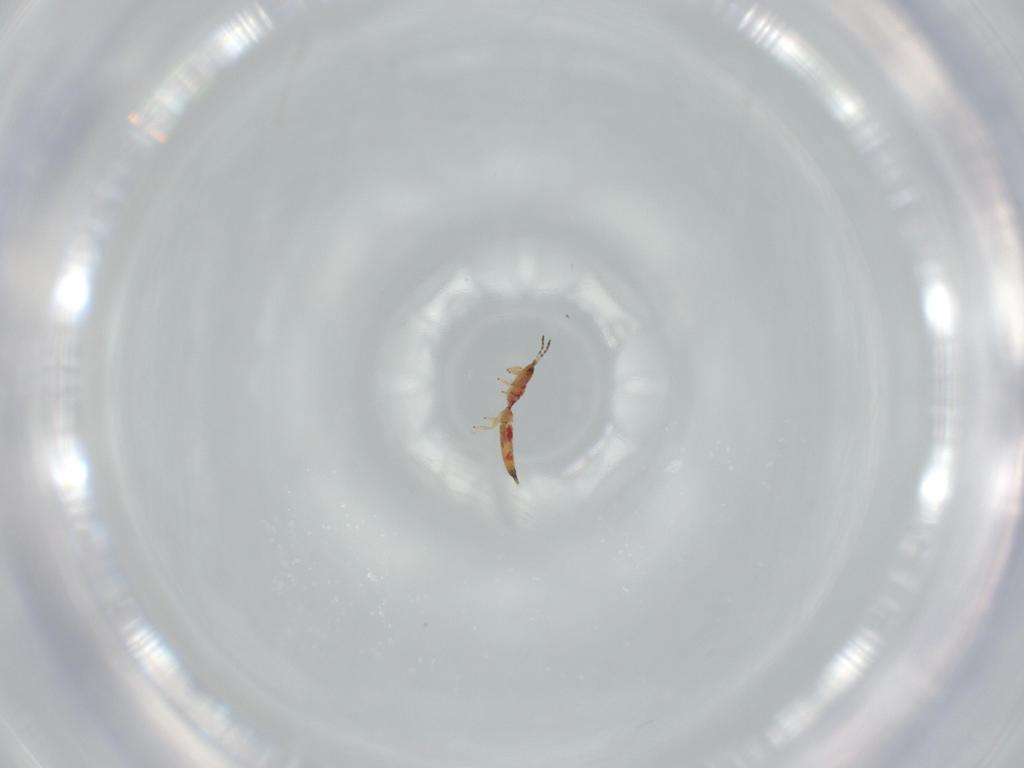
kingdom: Animalia
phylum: Arthropoda
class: Insecta
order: Thysanoptera
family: Phlaeothripidae
